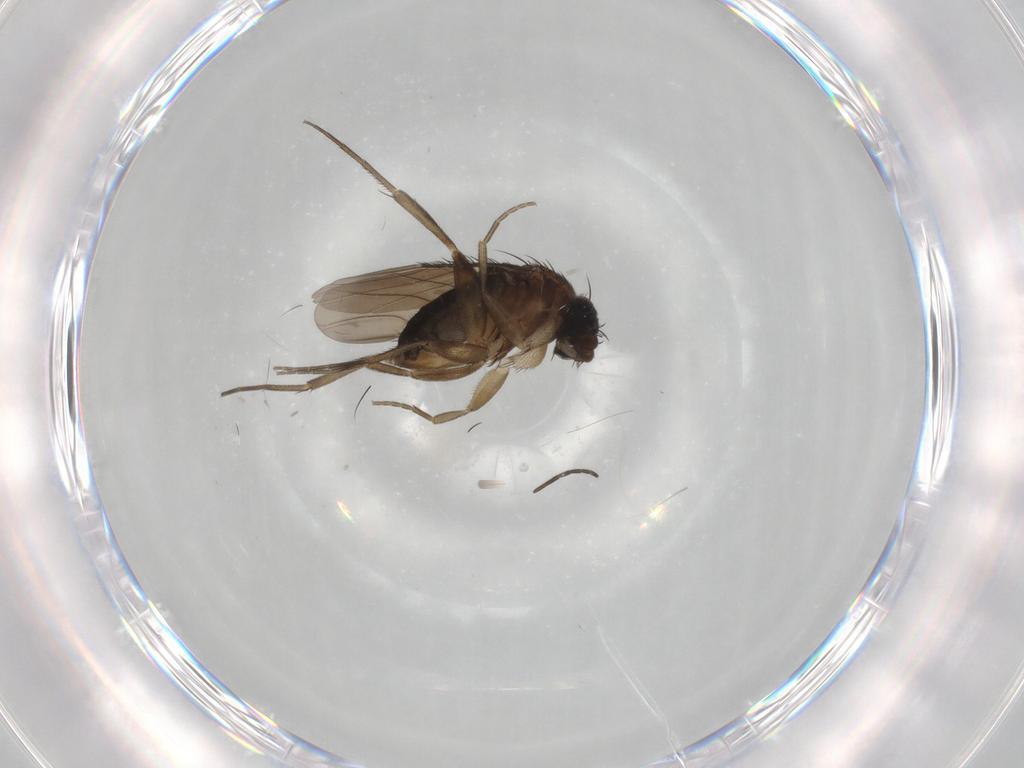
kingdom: Animalia
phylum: Arthropoda
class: Insecta
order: Diptera
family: Phoridae
